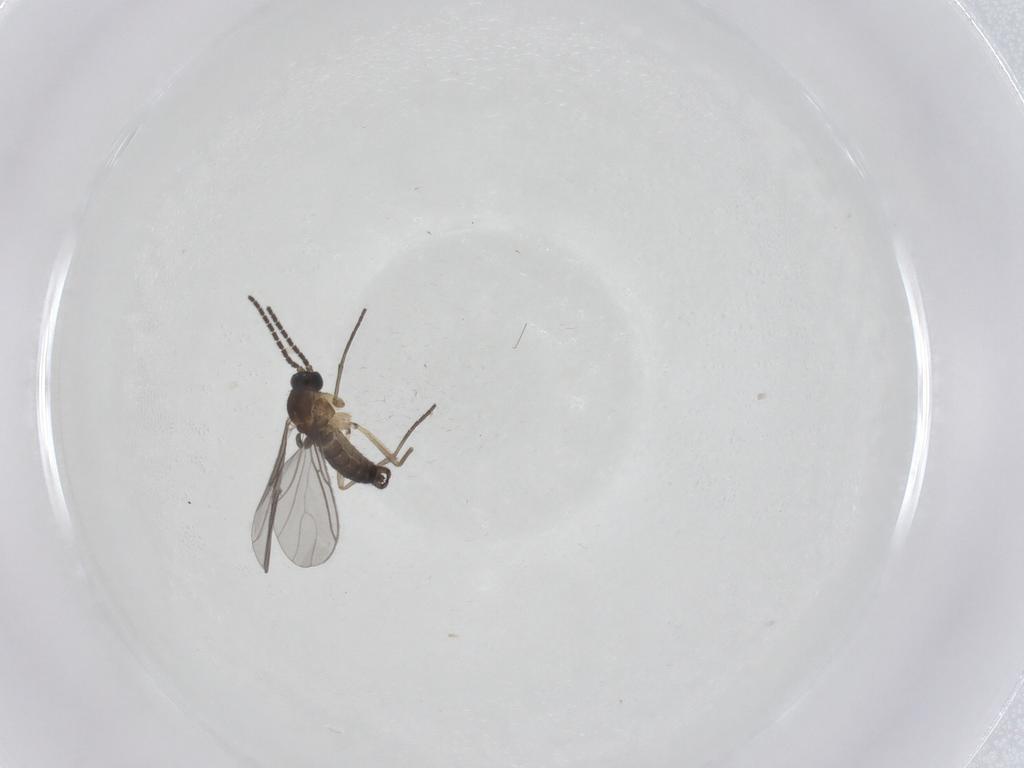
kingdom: Animalia
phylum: Arthropoda
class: Insecta
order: Diptera
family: Sciaridae
